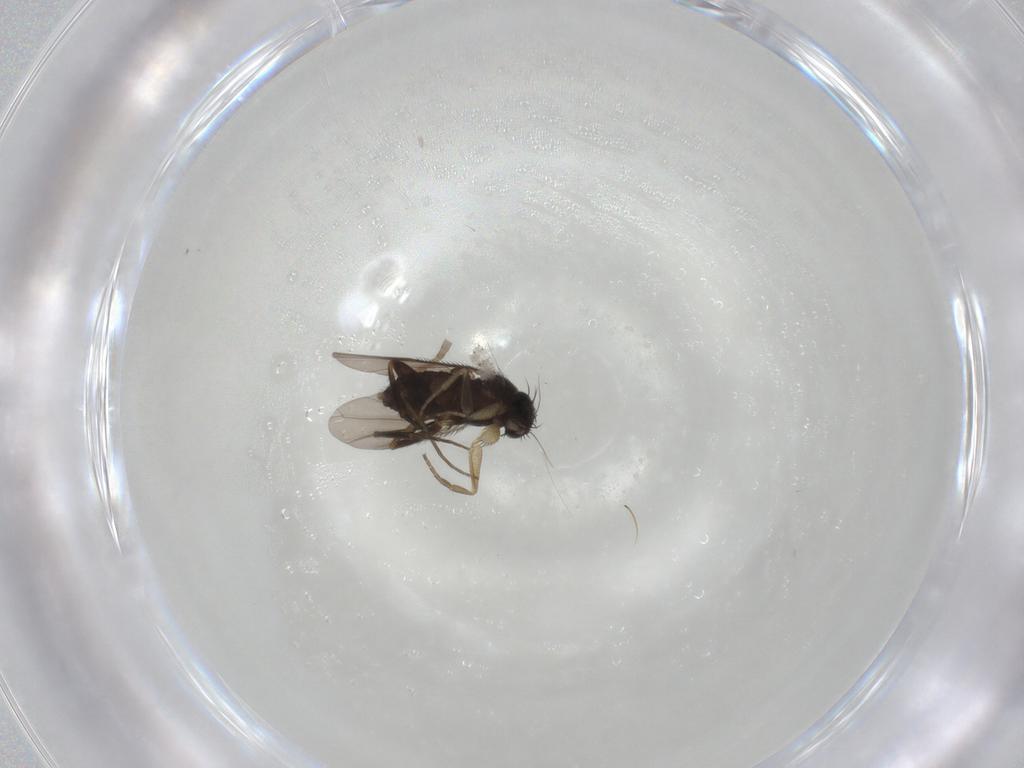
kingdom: Animalia
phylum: Arthropoda
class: Insecta
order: Diptera
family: Phoridae
